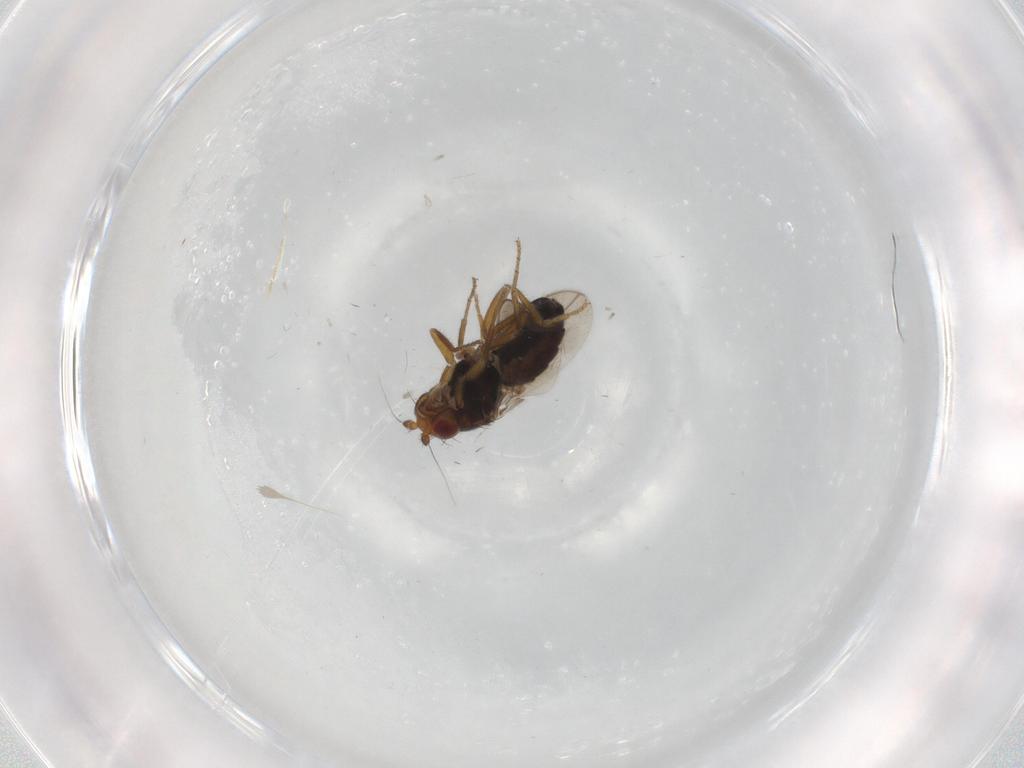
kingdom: Animalia
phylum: Arthropoda
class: Insecta
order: Diptera
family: Sphaeroceridae
